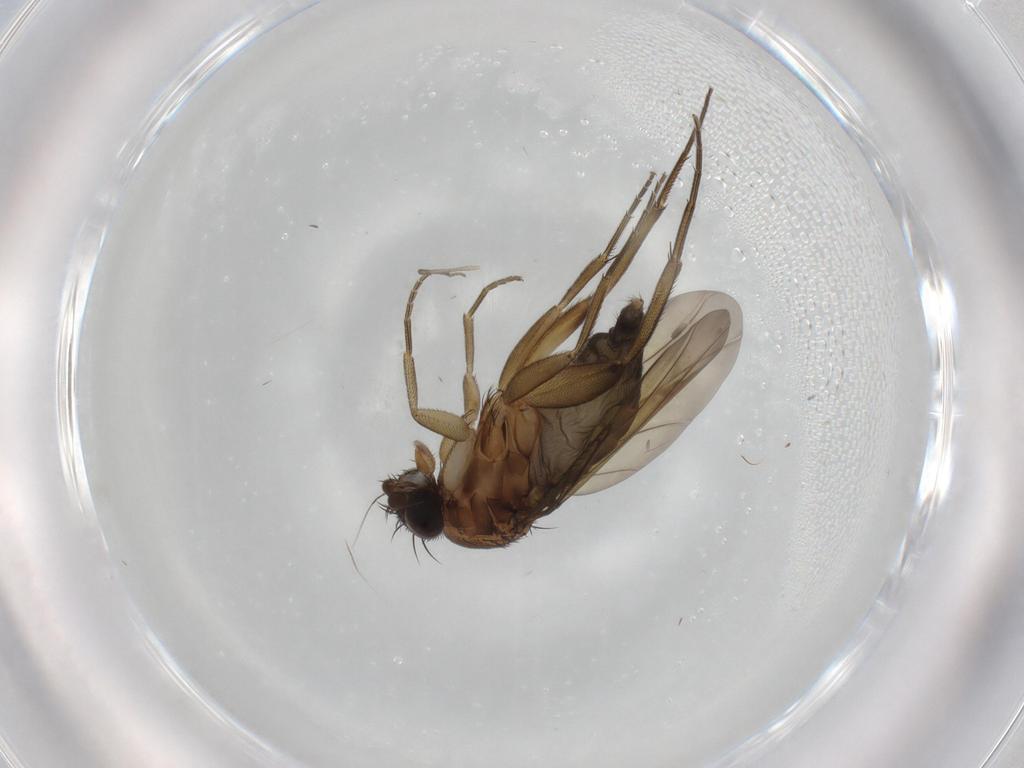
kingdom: Animalia
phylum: Arthropoda
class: Insecta
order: Diptera
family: Phoridae
